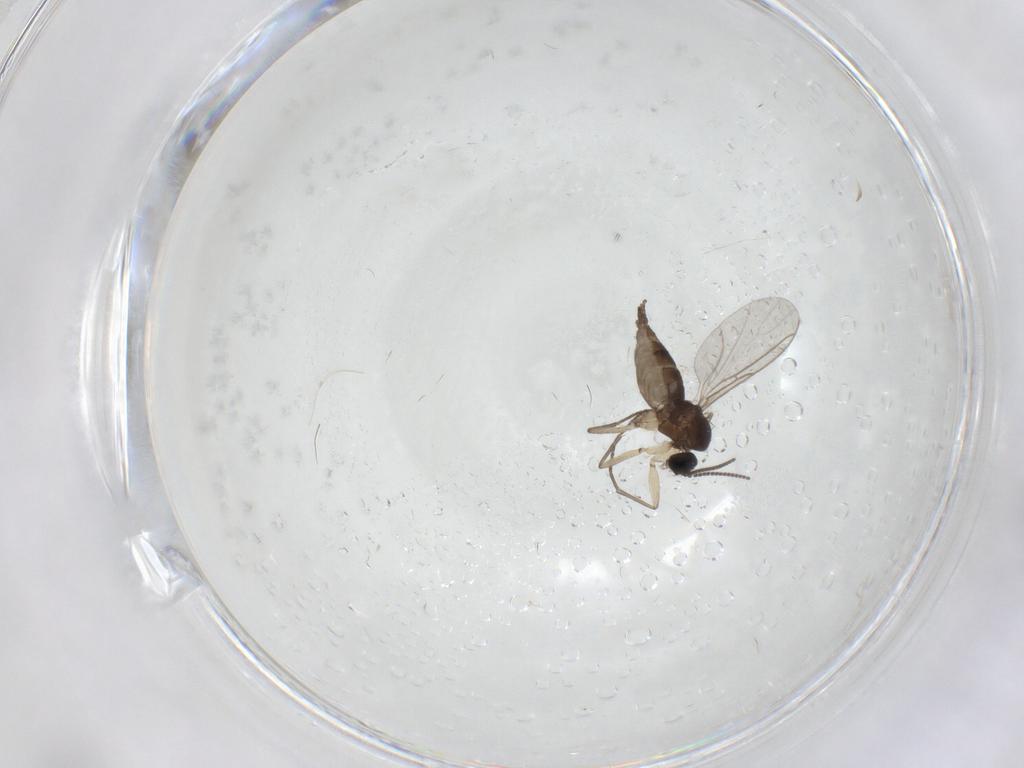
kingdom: Animalia
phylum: Arthropoda
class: Insecta
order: Diptera
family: Sciaridae
